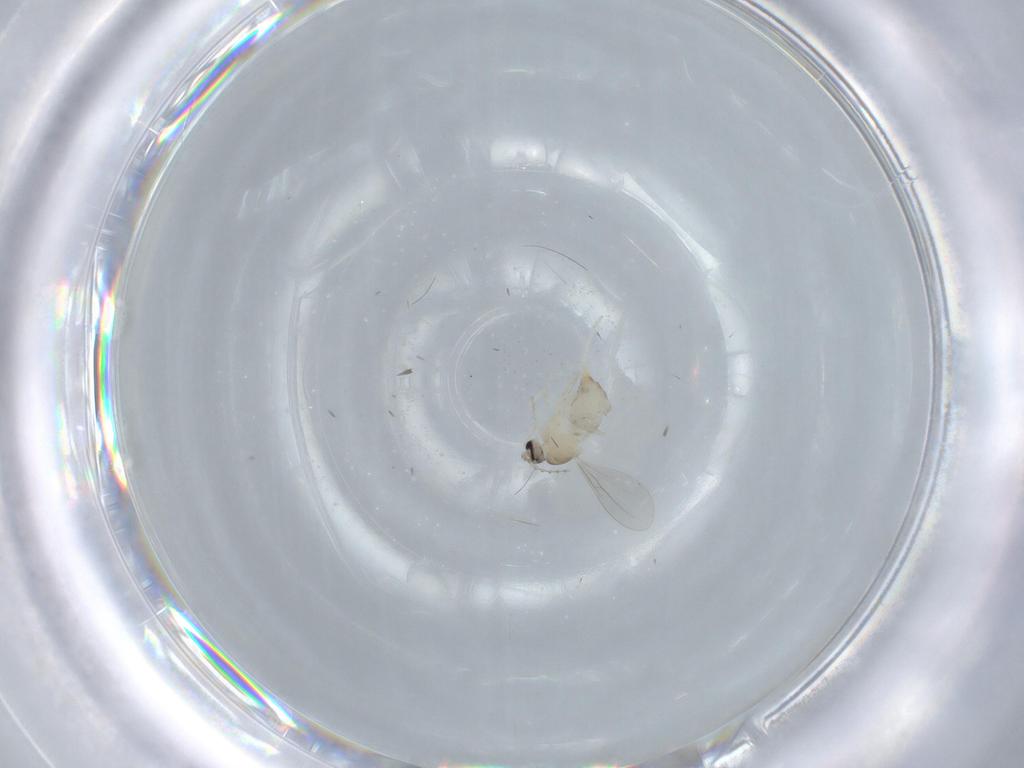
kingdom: Animalia
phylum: Arthropoda
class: Insecta
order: Diptera
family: Cecidomyiidae
